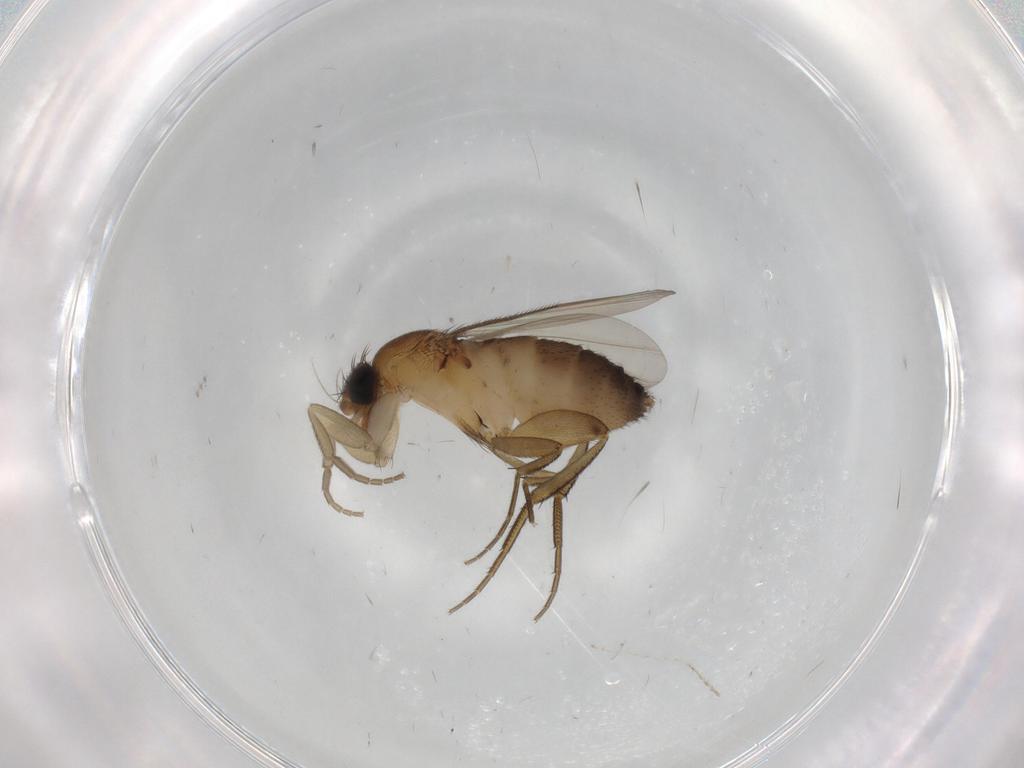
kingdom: Animalia
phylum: Arthropoda
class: Insecta
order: Diptera
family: Phoridae
